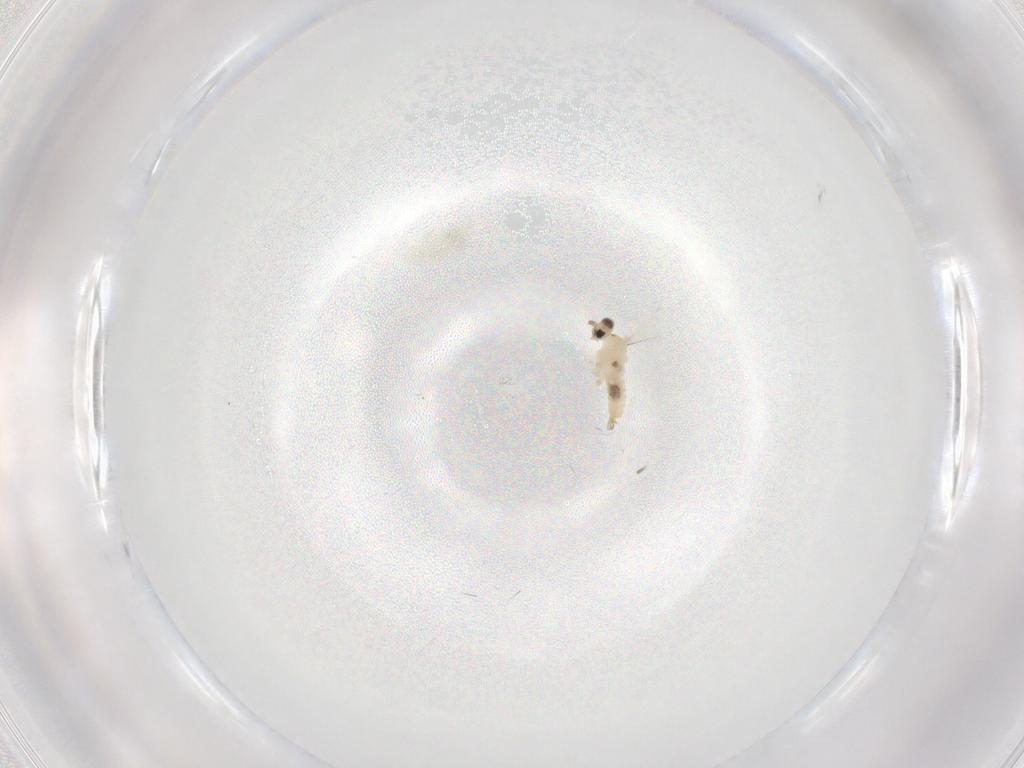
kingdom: Animalia
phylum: Arthropoda
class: Insecta
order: Diptera
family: Cecidomyiidae
